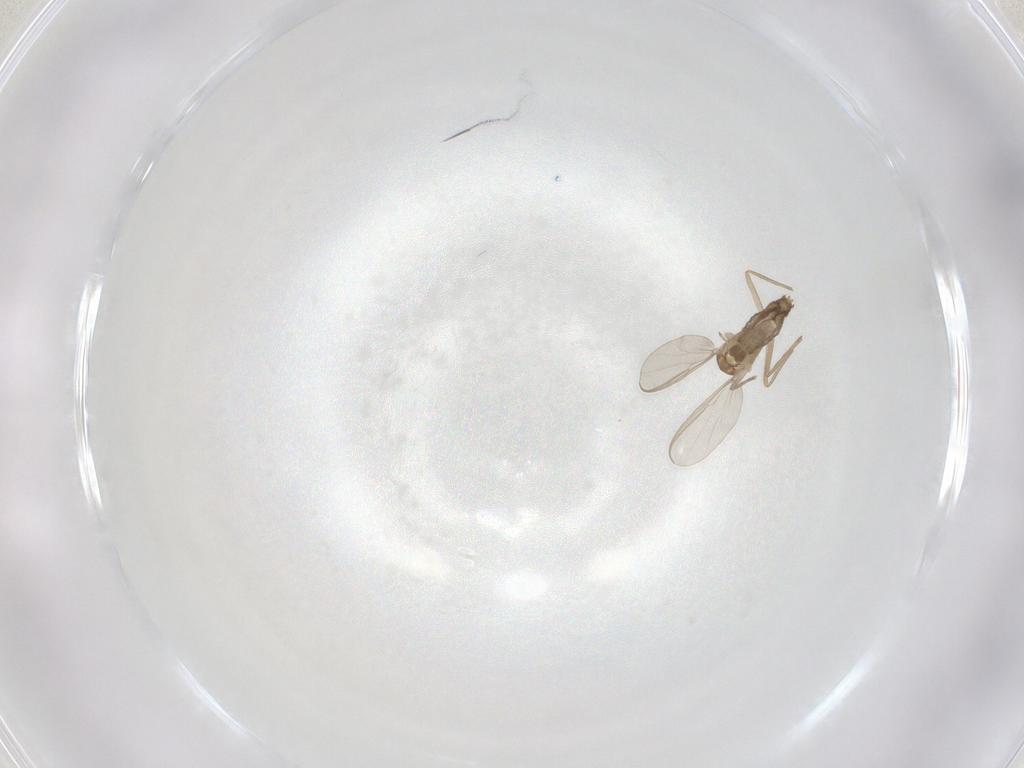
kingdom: Animalia
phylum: Arthropoda
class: Insecta
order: Diptera
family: Chironomidae
